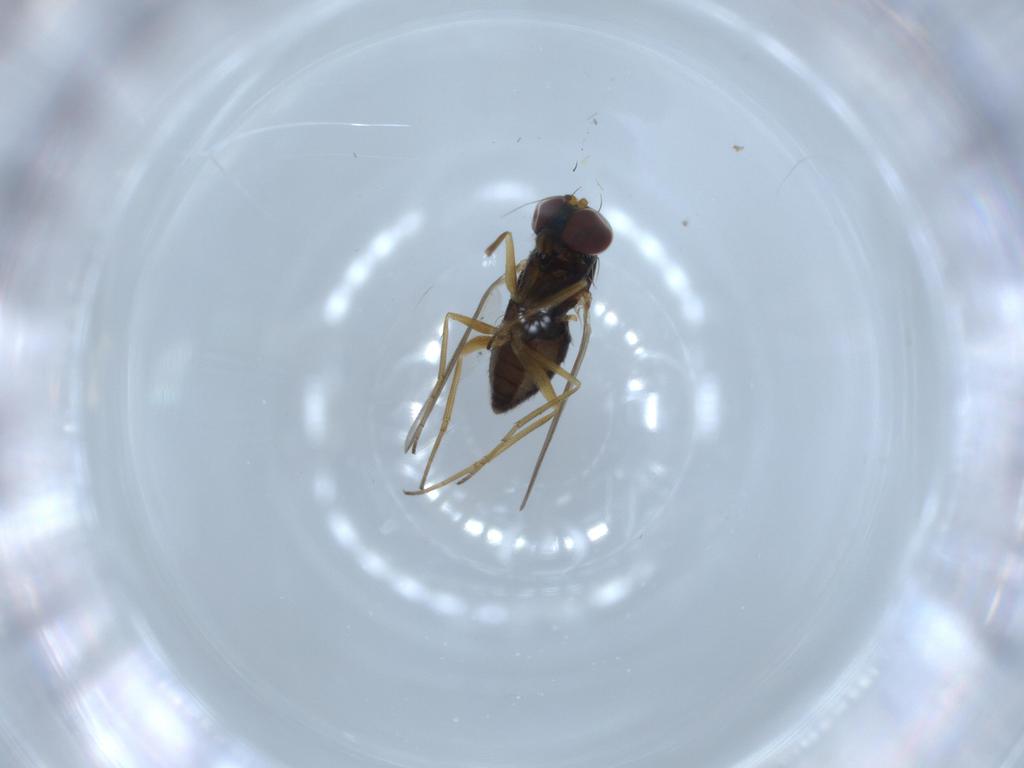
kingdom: Animalia
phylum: Arthropoda
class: Insecta
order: Diptera
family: Dolichopodidae
